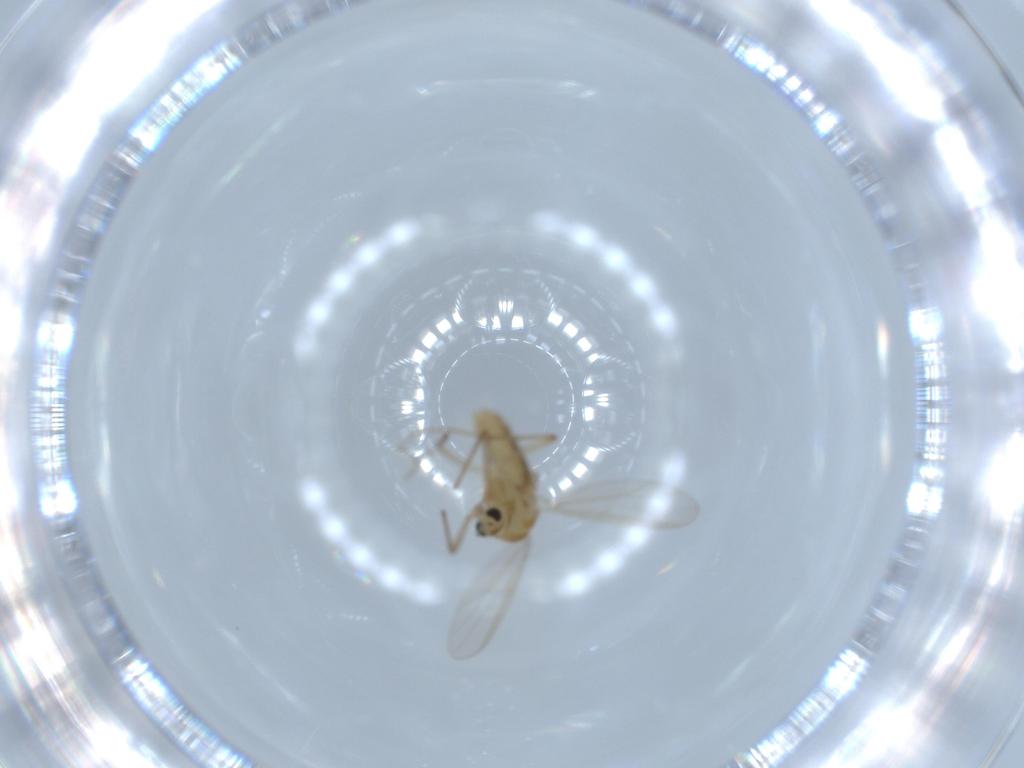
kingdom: Animalia
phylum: Arthropoda
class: Insecta
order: Diptera
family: Chironomidae
